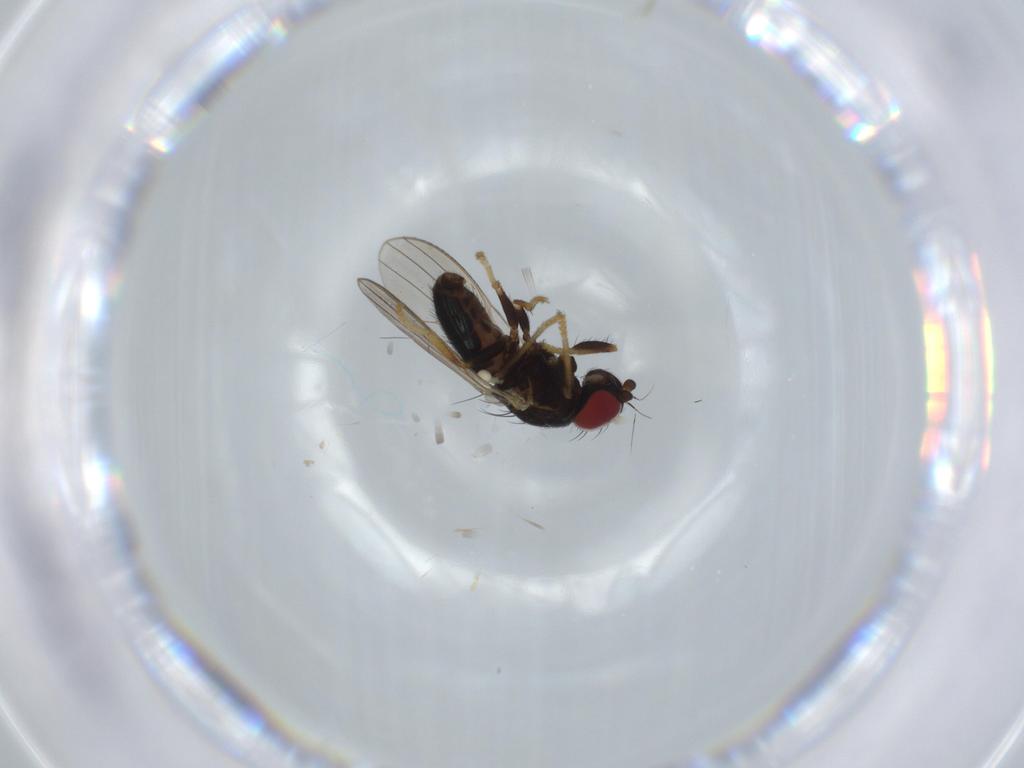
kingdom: Animalia
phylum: Arthropoda
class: Insecta
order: Diptera
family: Chamaemyiidae
